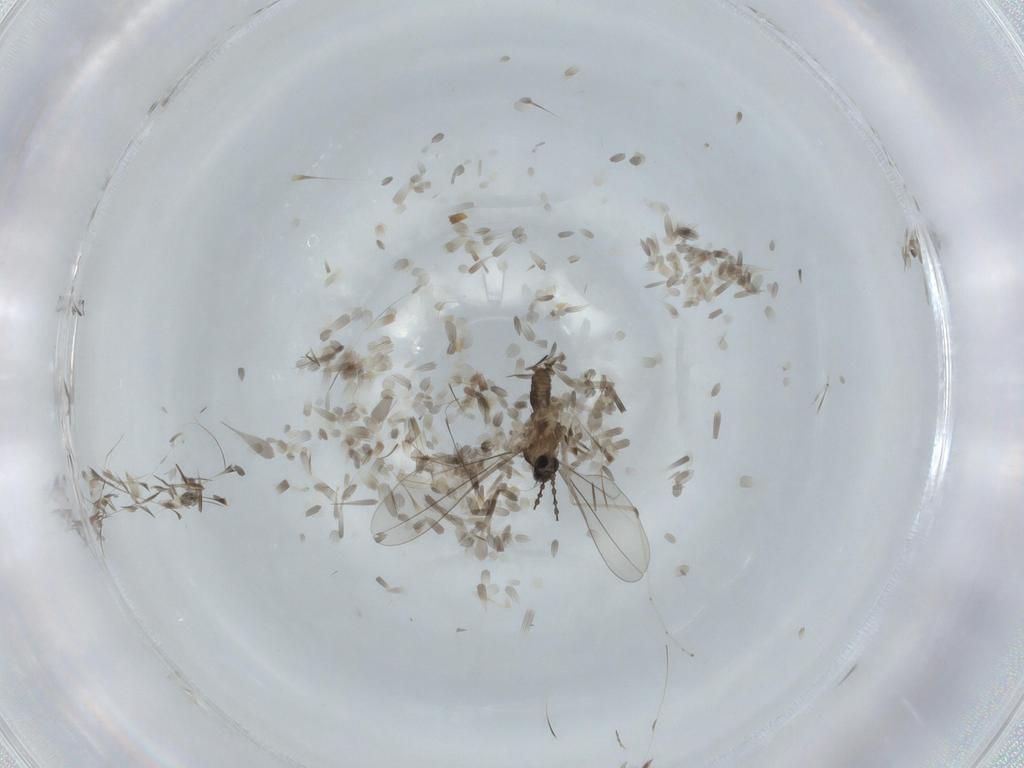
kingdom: Animalia
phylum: Arthropoda
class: Insecta
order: Diptera
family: Cecidomyiidae
